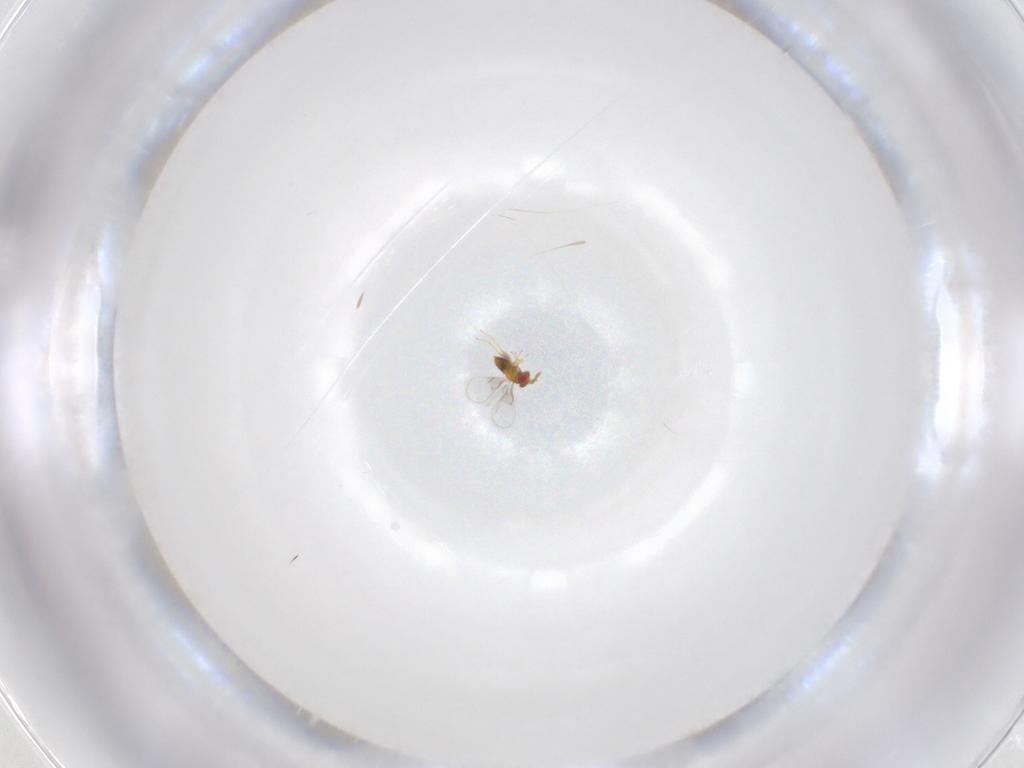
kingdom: Animalia
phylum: Arthropoda
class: Insecta
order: Hymenoptera
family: Trichogrammatidae
